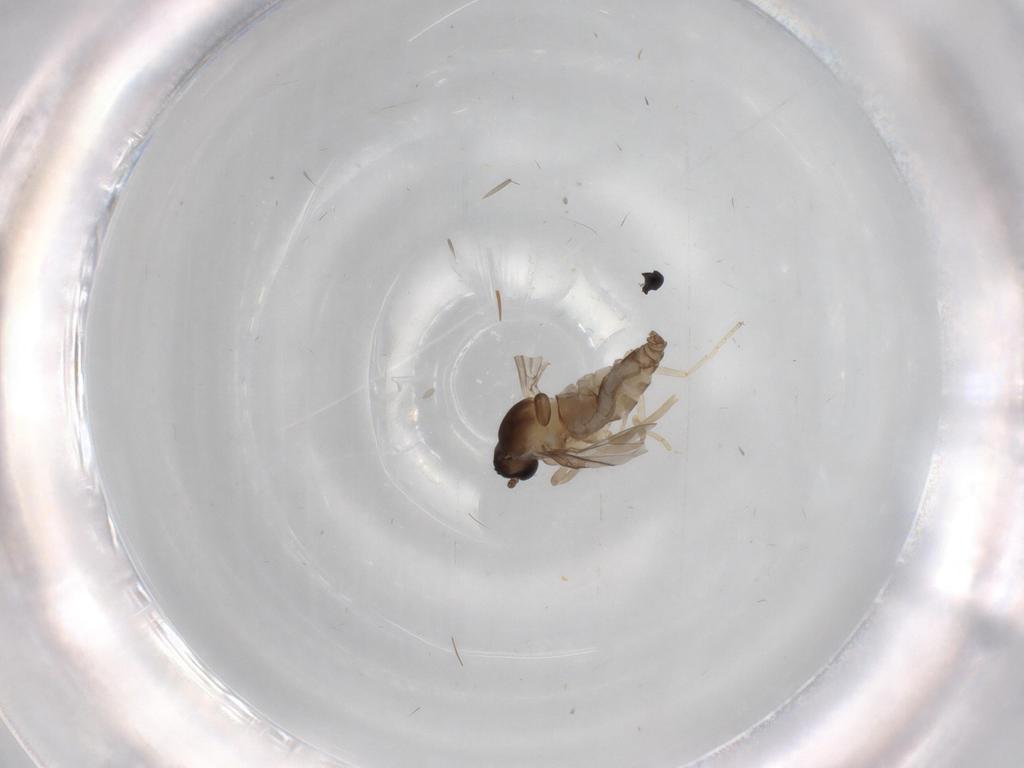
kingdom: Animalia
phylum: Arthropoda
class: Insecta
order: Diptera
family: Cecidomyiidae
